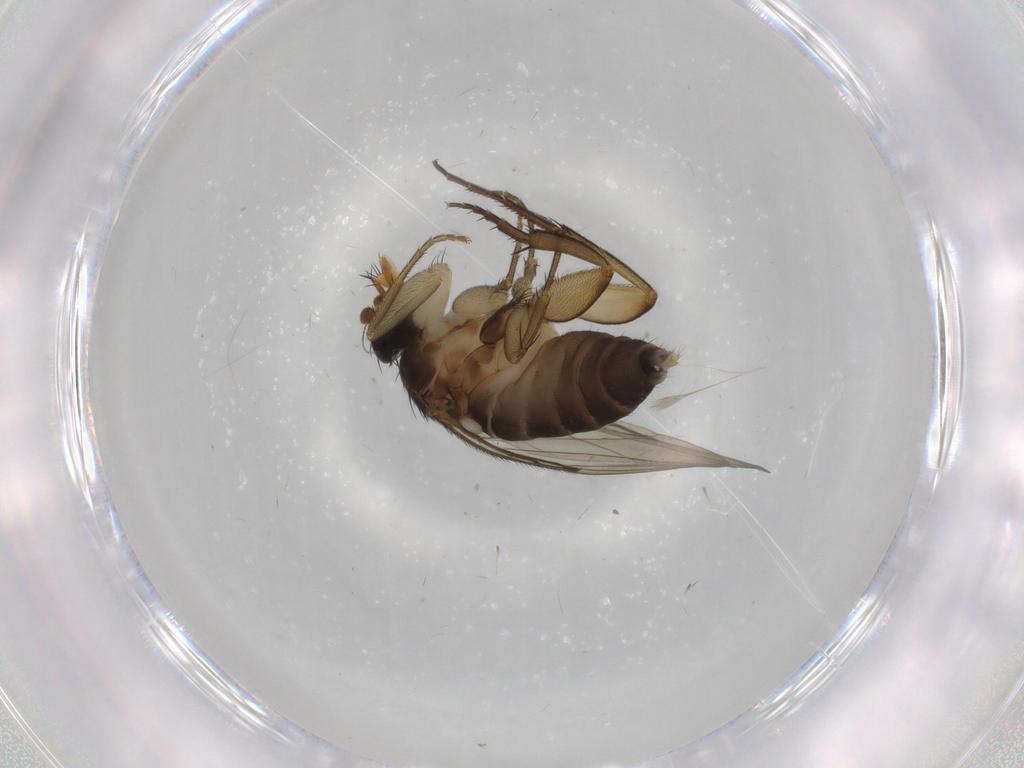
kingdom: Animalia
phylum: Arthropoda
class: Insecta
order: Diptera
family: Phoridae
